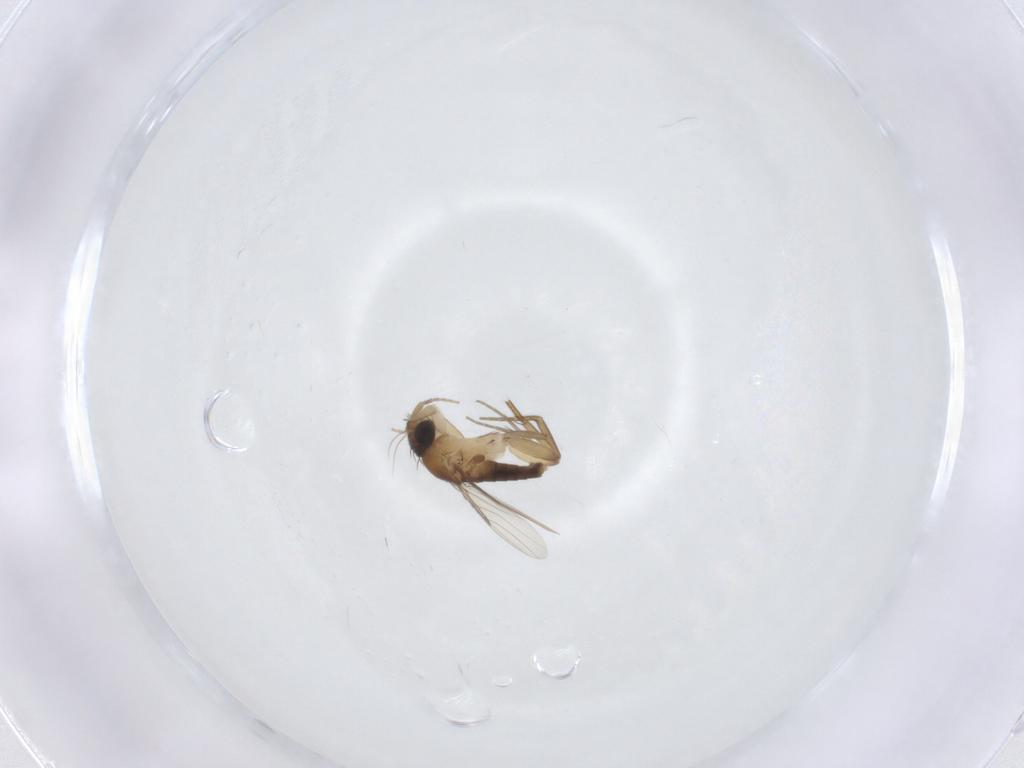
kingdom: Animalia
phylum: Arthropoda
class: Insecta
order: Diptera
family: Phoridae
